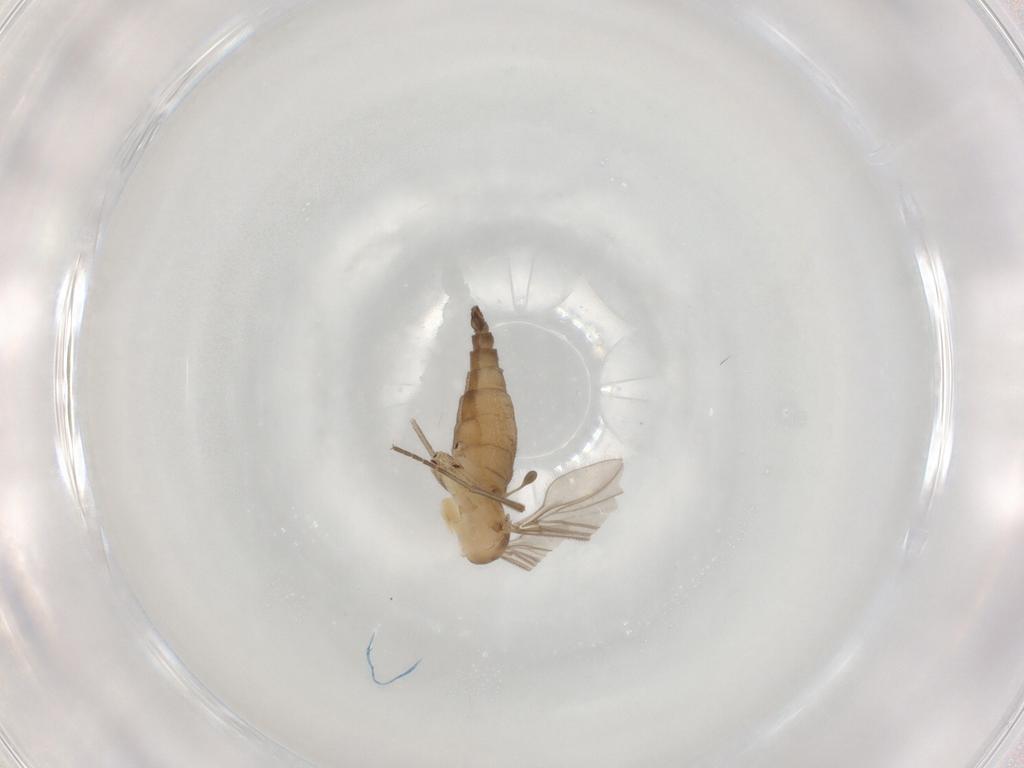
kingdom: Animalia
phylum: Arthropoda
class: Insecta
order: Diptera
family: Sciaridae
